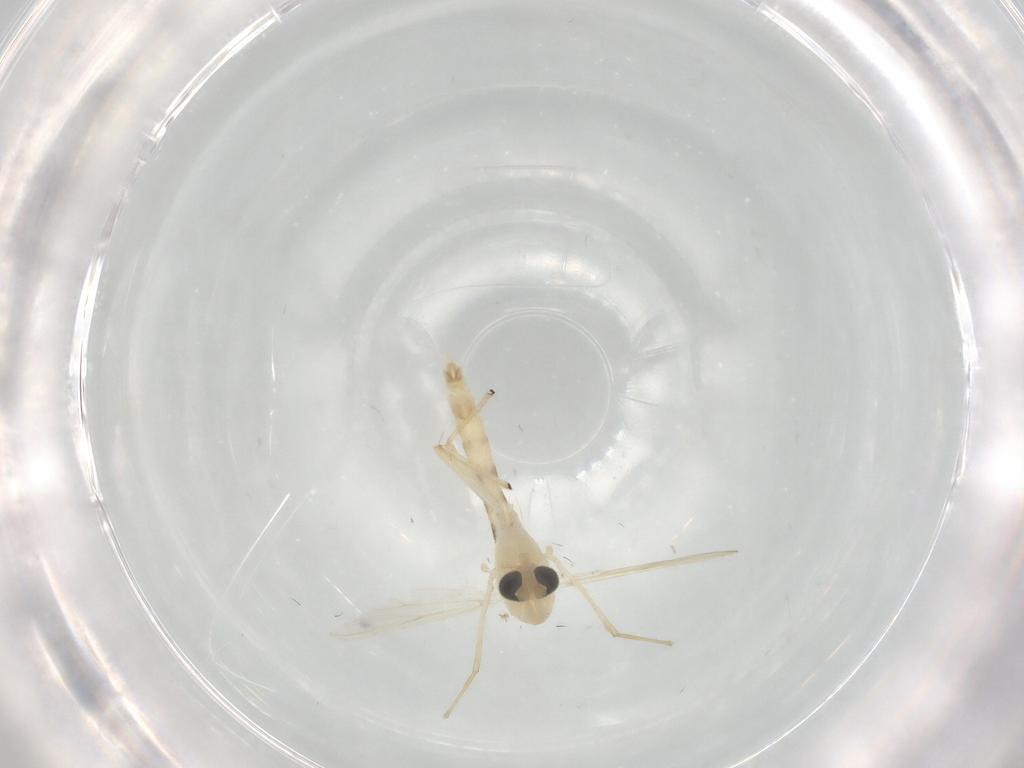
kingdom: Animalia
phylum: Arthropoda
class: Insecta
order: Diptera
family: Chironomidae
